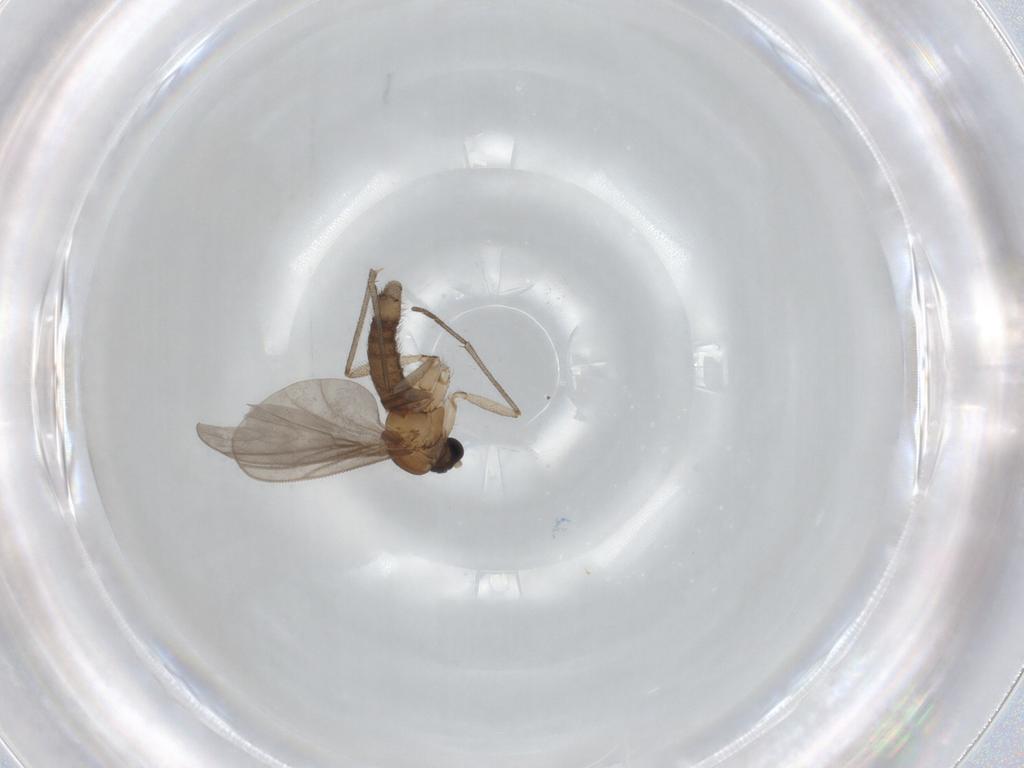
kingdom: Animalia
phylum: Arthropoda
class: Insecta
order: Diptera
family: Sciaridae
